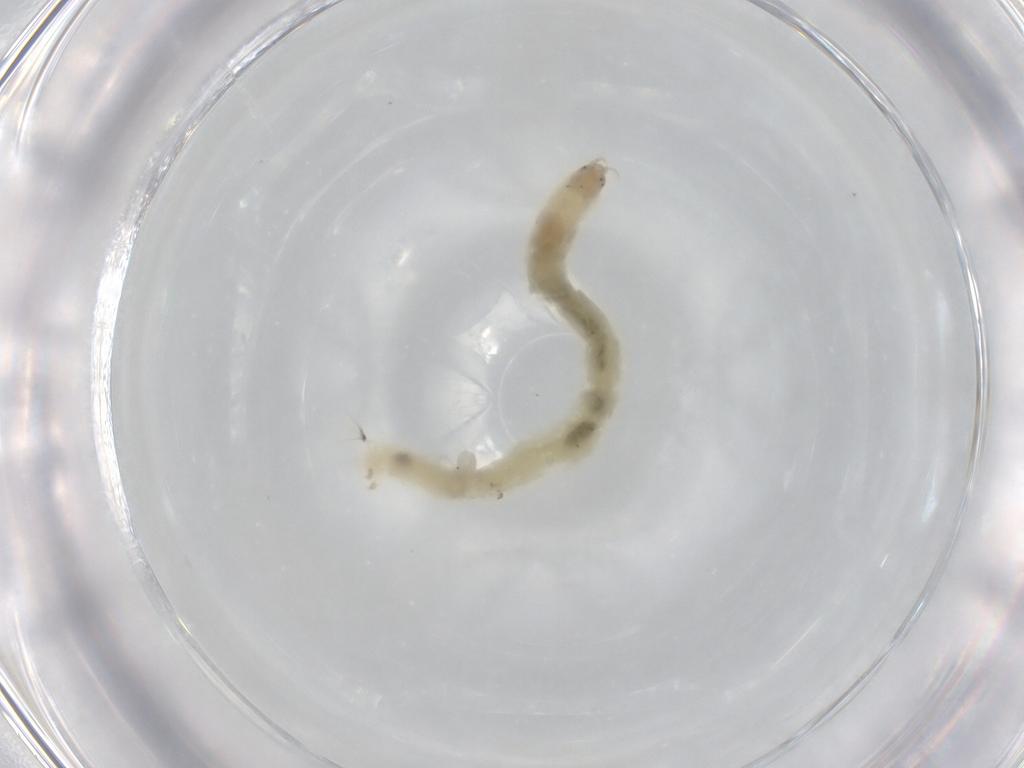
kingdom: Animalia
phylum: Arthropoda
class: Insecta
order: Diptera
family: Chironomidae
